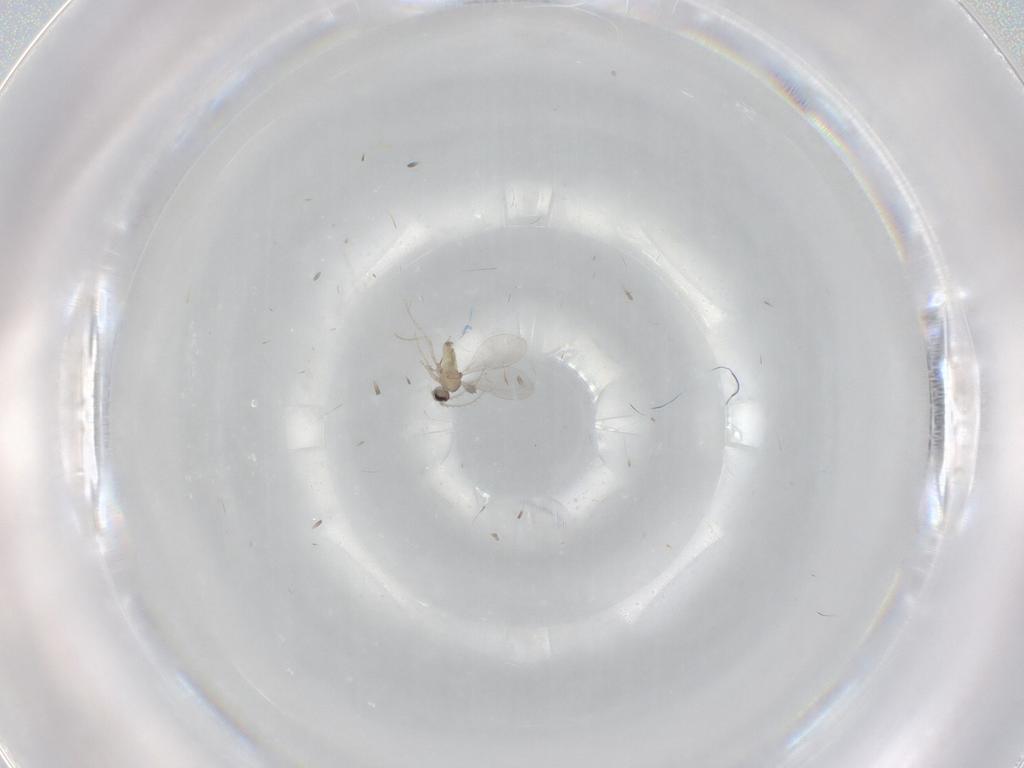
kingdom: Animalia
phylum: Arthropoda
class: Insecta
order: Diptera
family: Cecidomyiidae
